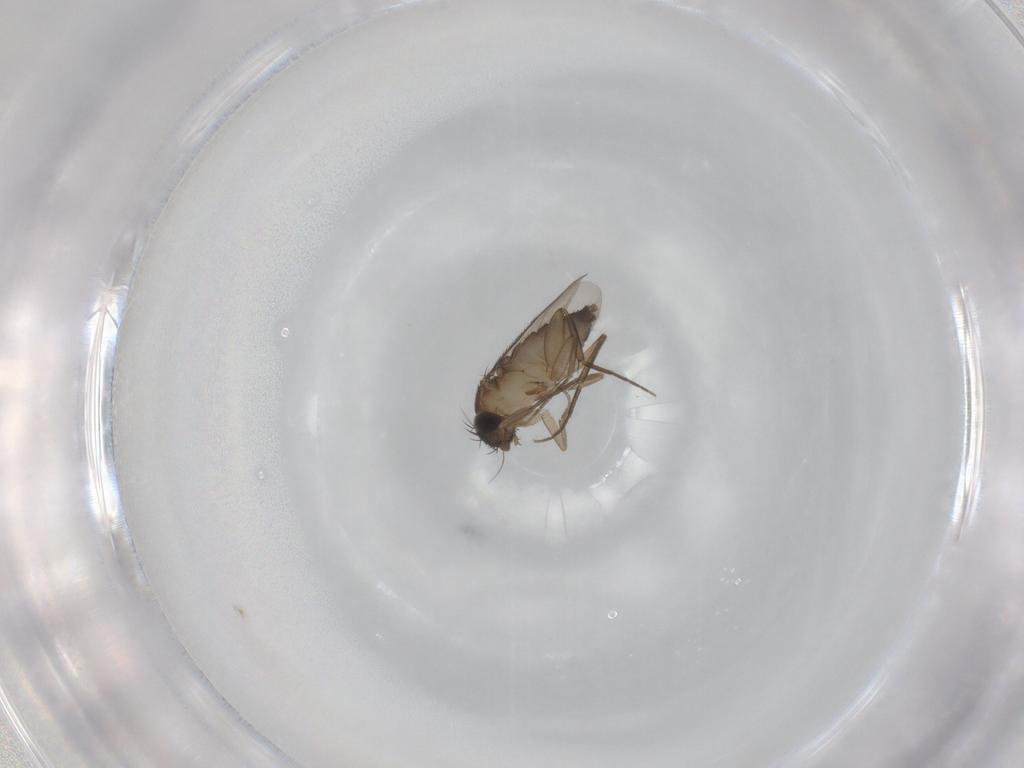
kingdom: Animalia
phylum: Arthropoda
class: Insecta
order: Diptera
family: Phoridae
